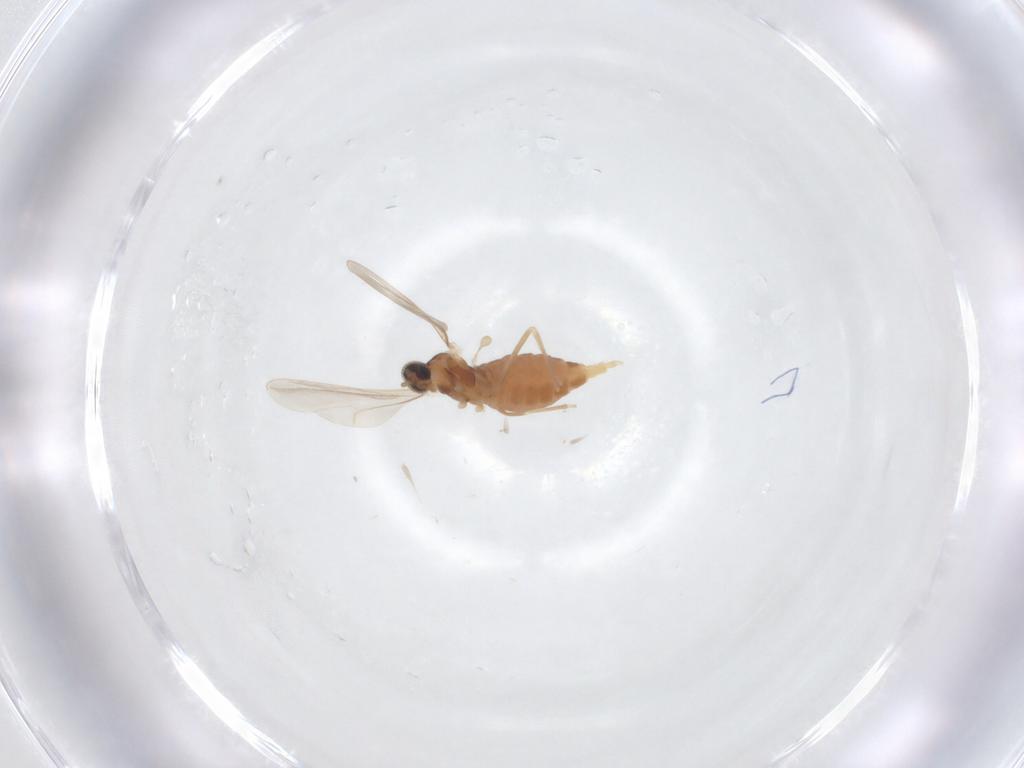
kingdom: Animalia
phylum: Arthropoda
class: Insecta
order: Diptera
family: Cecidomyiidae
